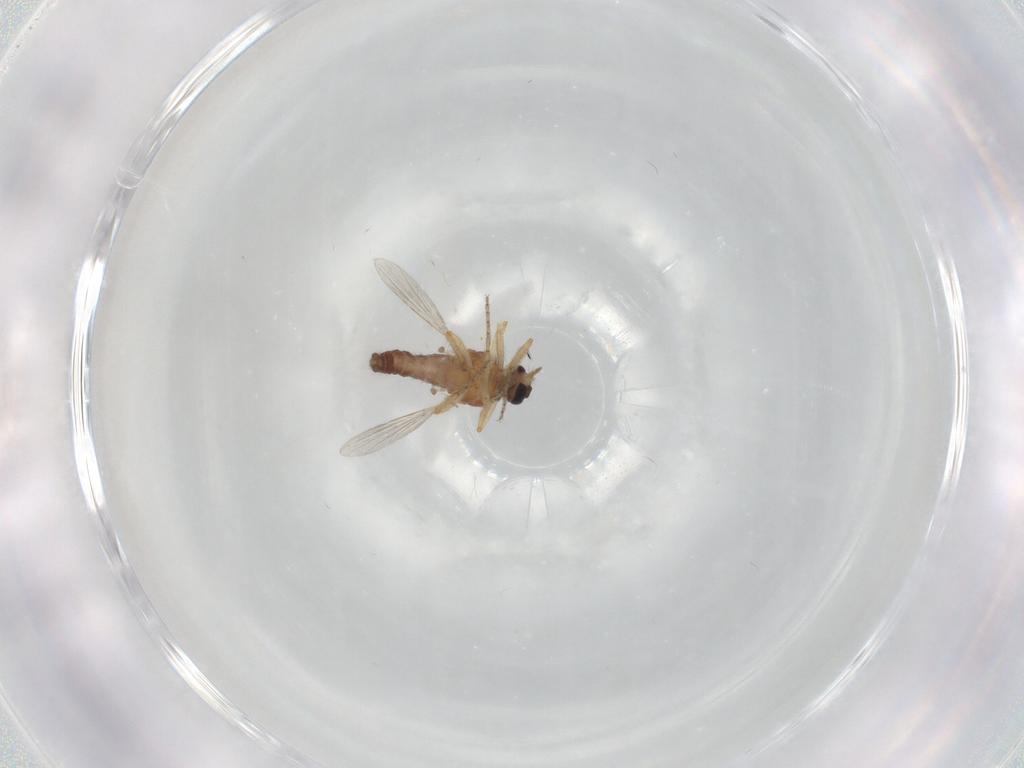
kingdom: Animalia
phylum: Arthropoda
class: Insecta
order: Diptera
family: Ceratopogonidae
